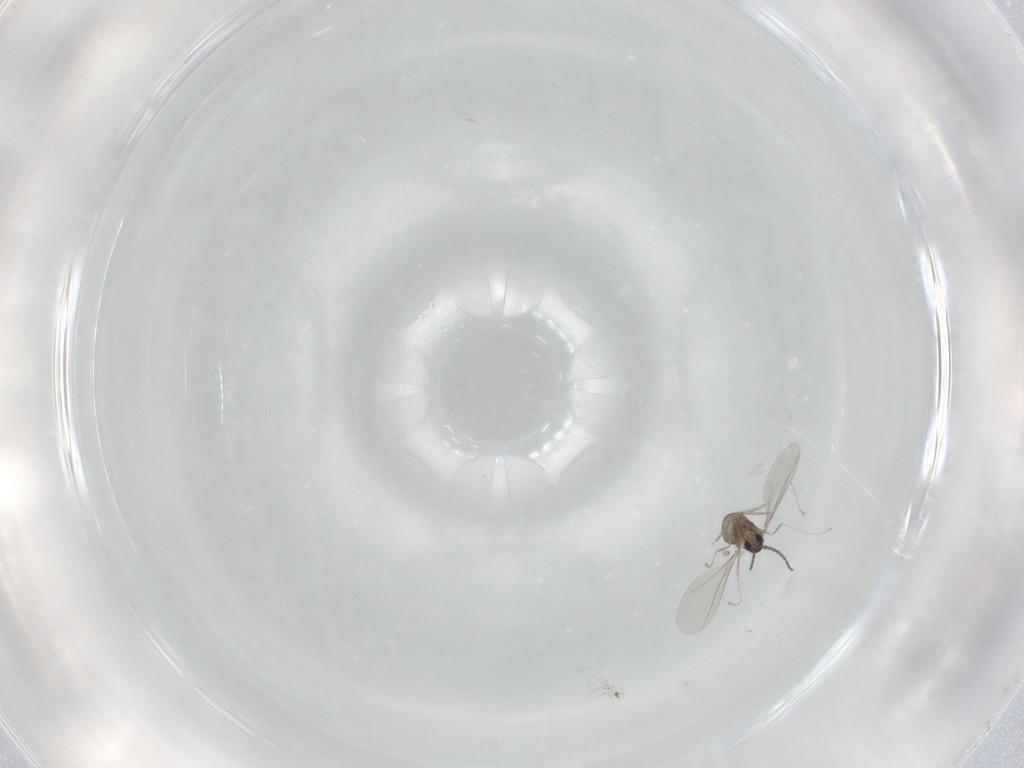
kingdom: Animalia
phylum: Arthropoda
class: Insecta
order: Diptera
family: Cecidomyiidae
